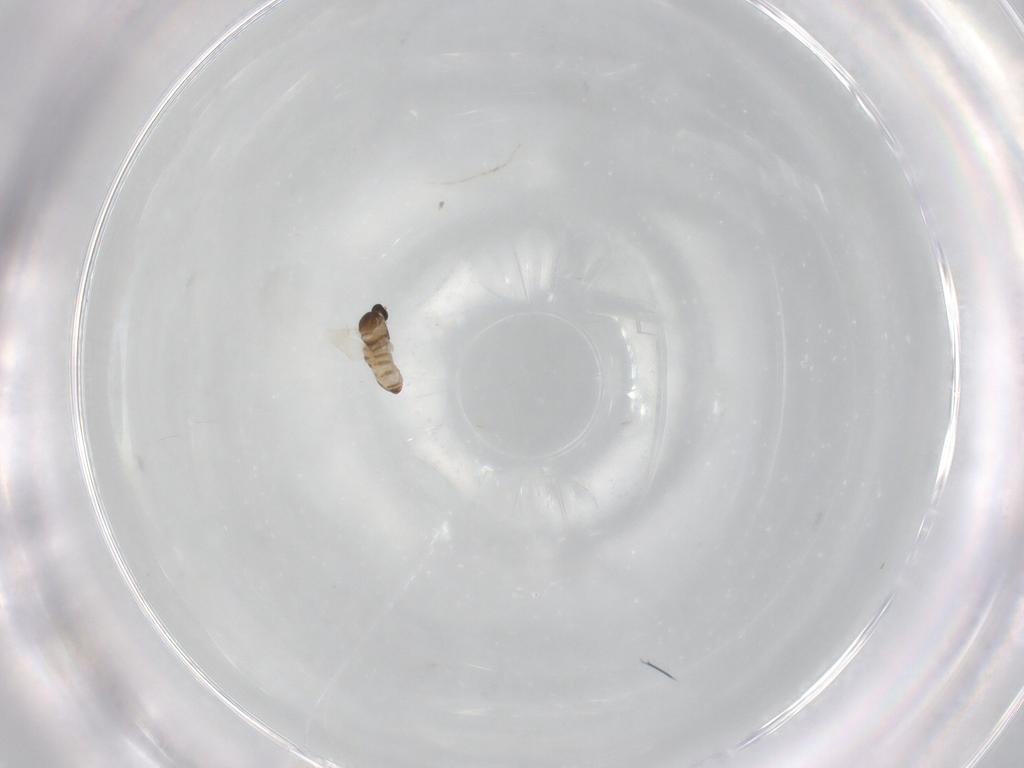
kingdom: Animalia
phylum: Arthropoda
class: Insecta
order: Diptera
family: Cecidomyiidae
